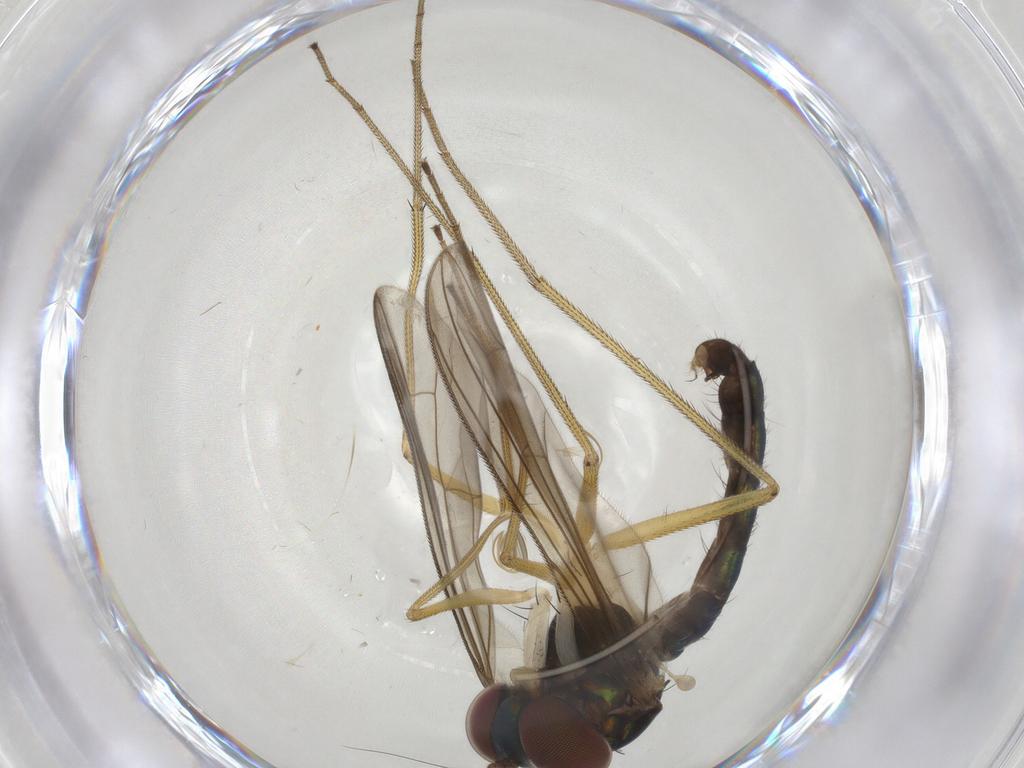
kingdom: Animalia
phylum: Arthropoda
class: Insecta
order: Diptera
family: Dolichopodidae
